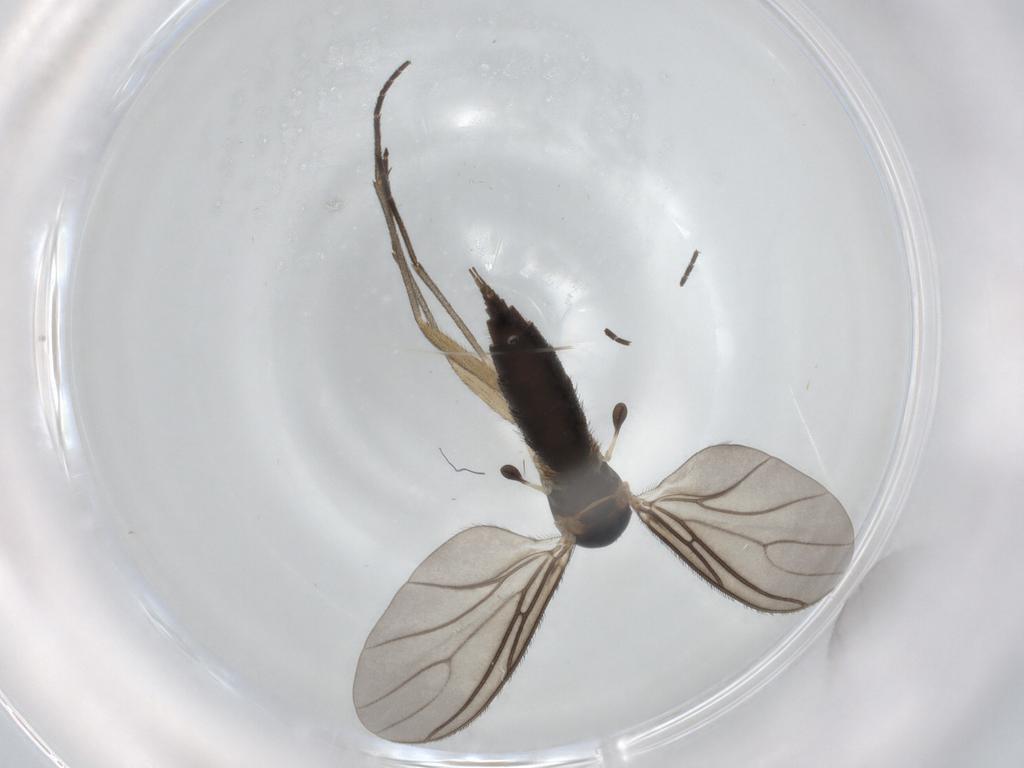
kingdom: Animalia
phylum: Arthropoda
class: Insecta
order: Diptera
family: Sciaridae
